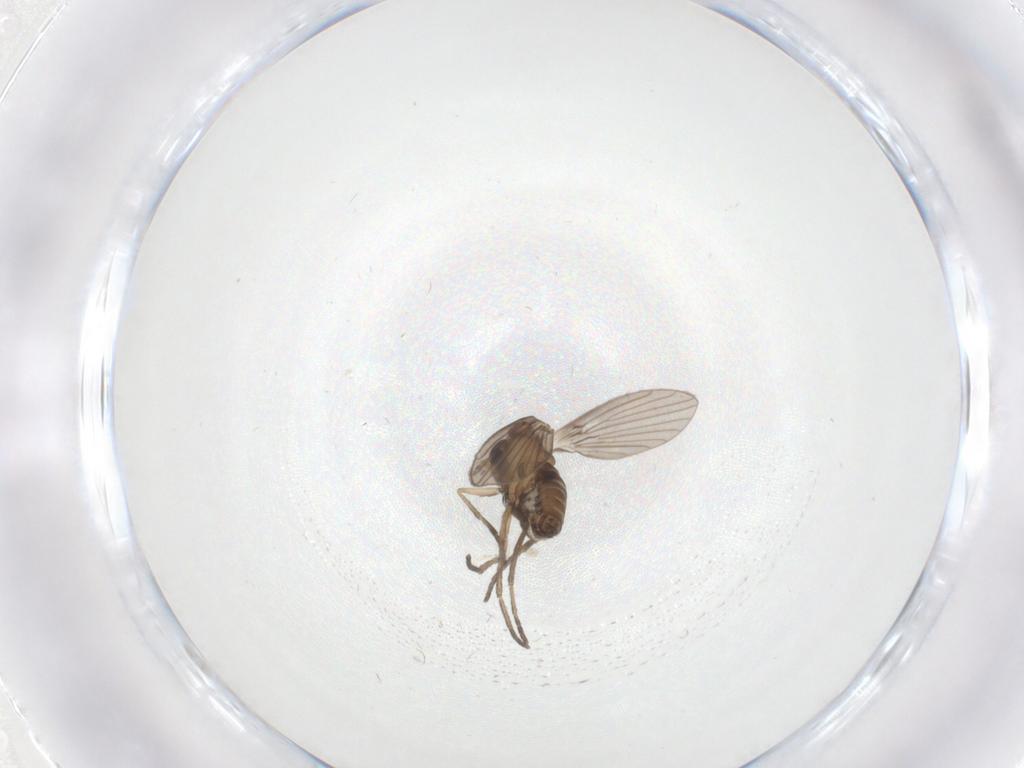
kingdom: Animalia
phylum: Arthropoda
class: Insecta
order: Diptera
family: Psychodidae
